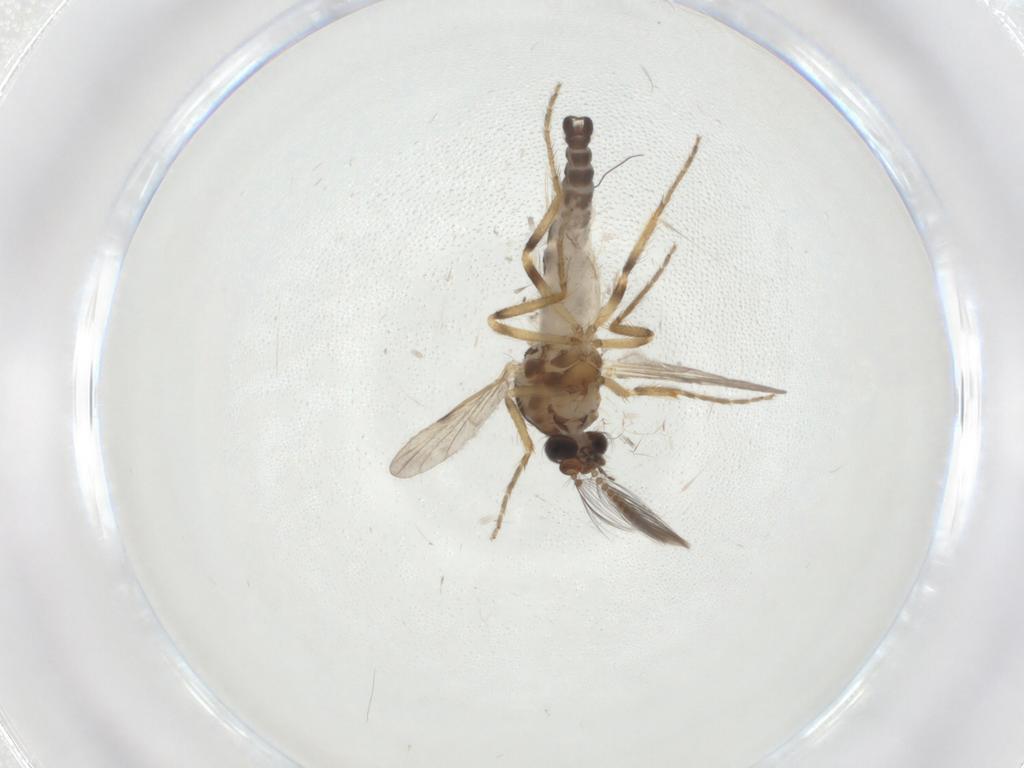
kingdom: Animalia
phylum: Arthropoda
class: Insecta
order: Diptera
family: Ceratopogonidae
